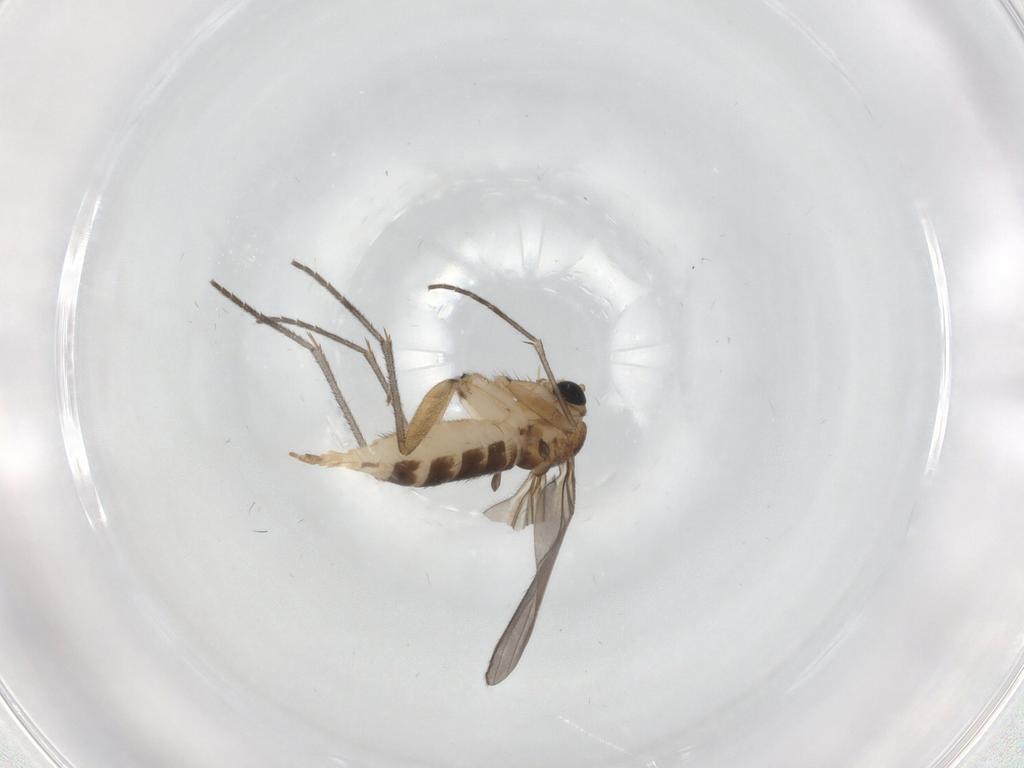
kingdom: Animalia
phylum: Arthropoda
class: Insecta
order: Diptera
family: Sciaridae
